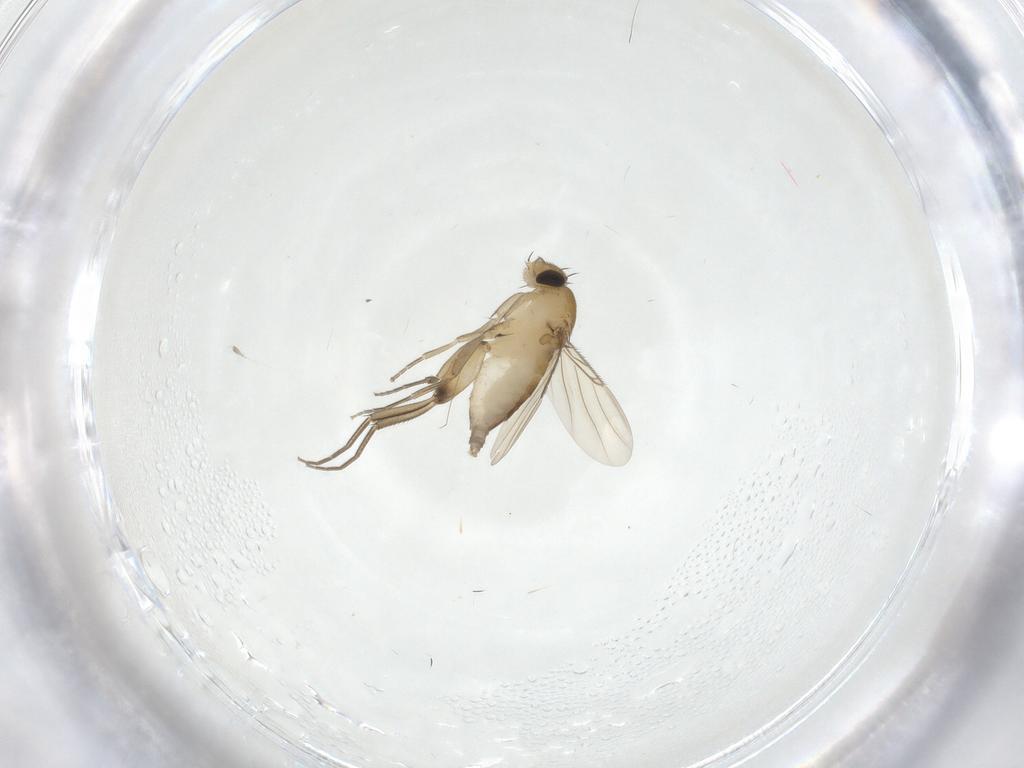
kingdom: Animalia
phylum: Arthropoda
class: Insecta
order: Diptera
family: Phoridae
